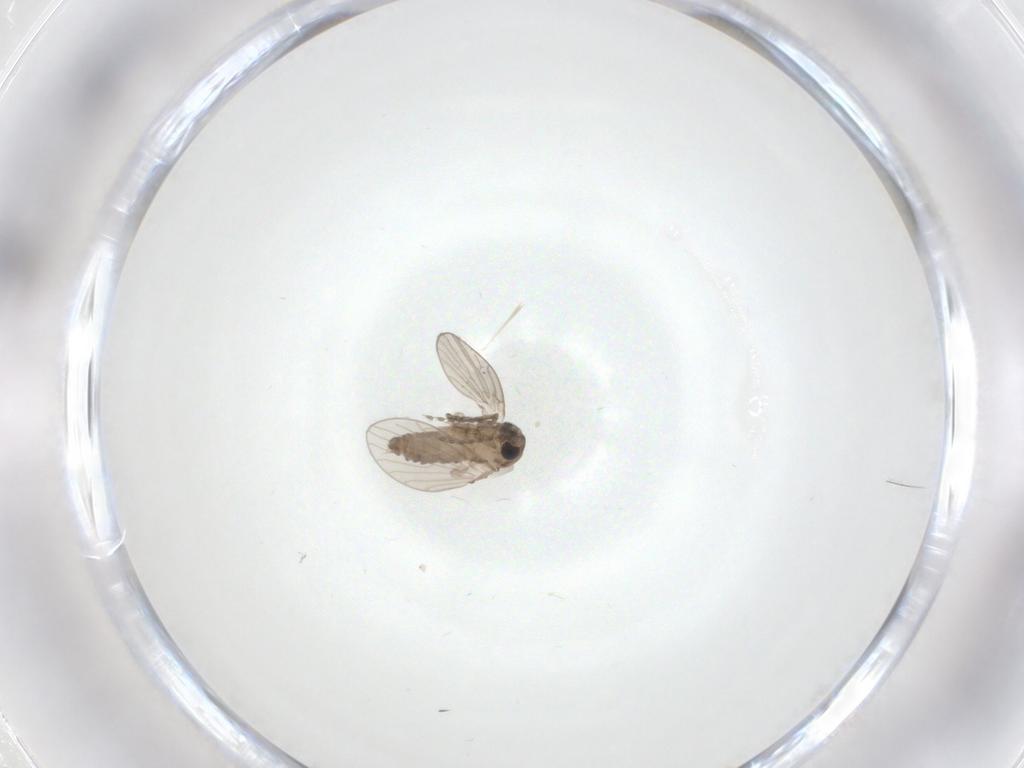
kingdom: Animalia
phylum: Arthropoda
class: Insecta
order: Diptera
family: Psychodidae
